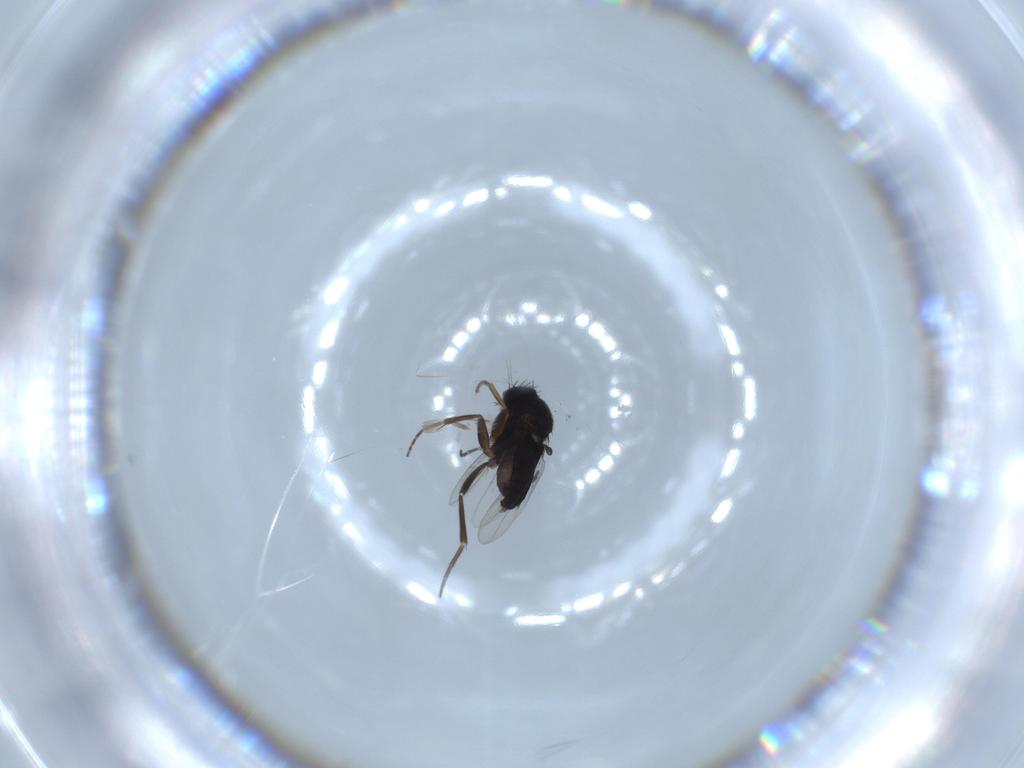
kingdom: Animalia
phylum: Arthropoda
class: Insecta
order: Diptera
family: Phoridae
